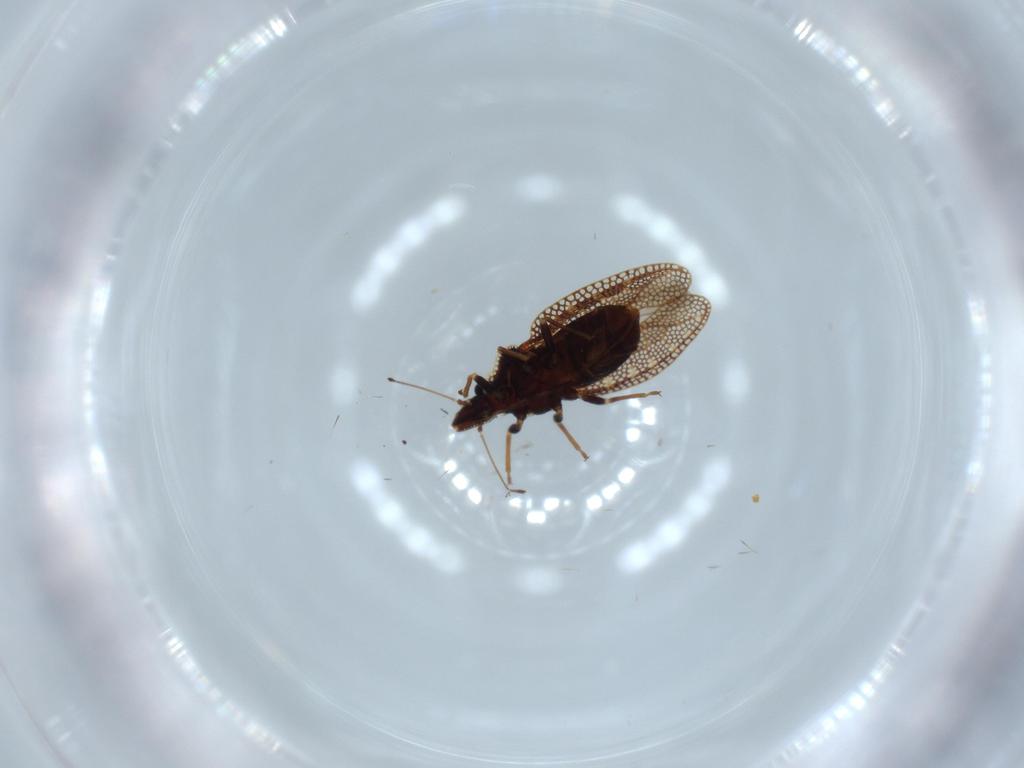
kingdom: Animalia
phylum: Arthropoda
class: Insecta
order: Hemiptera
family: Tingidae
